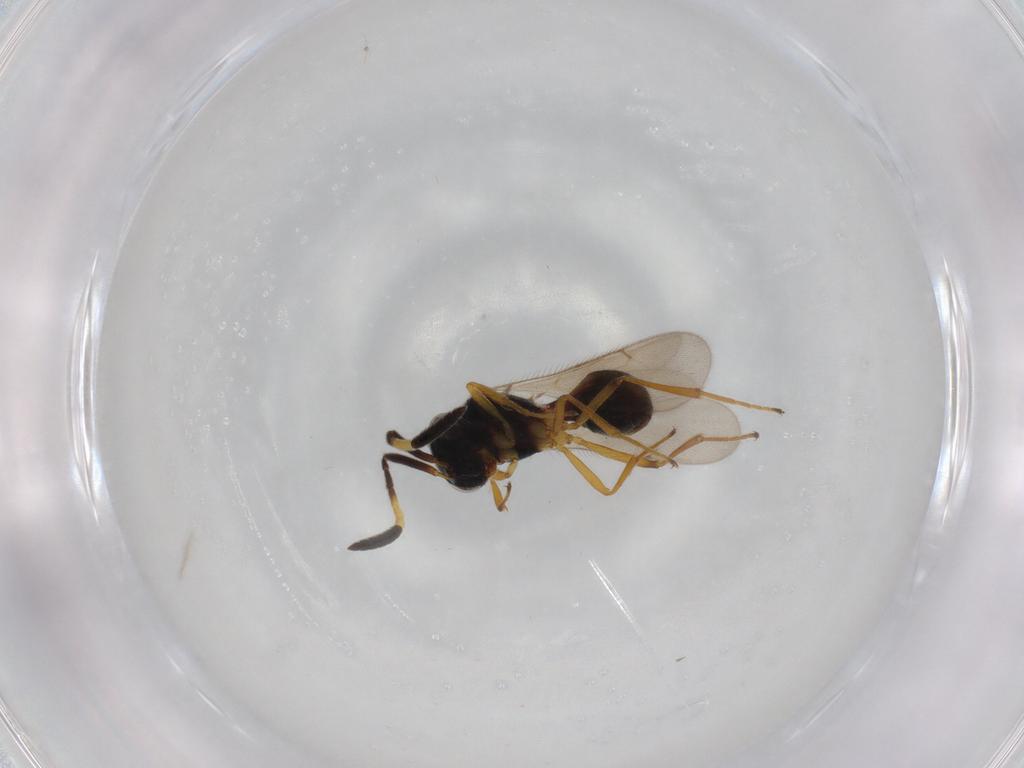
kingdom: Animalia
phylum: Arthropoda
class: Insecta
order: Hymenoptera
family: Scelionidae
